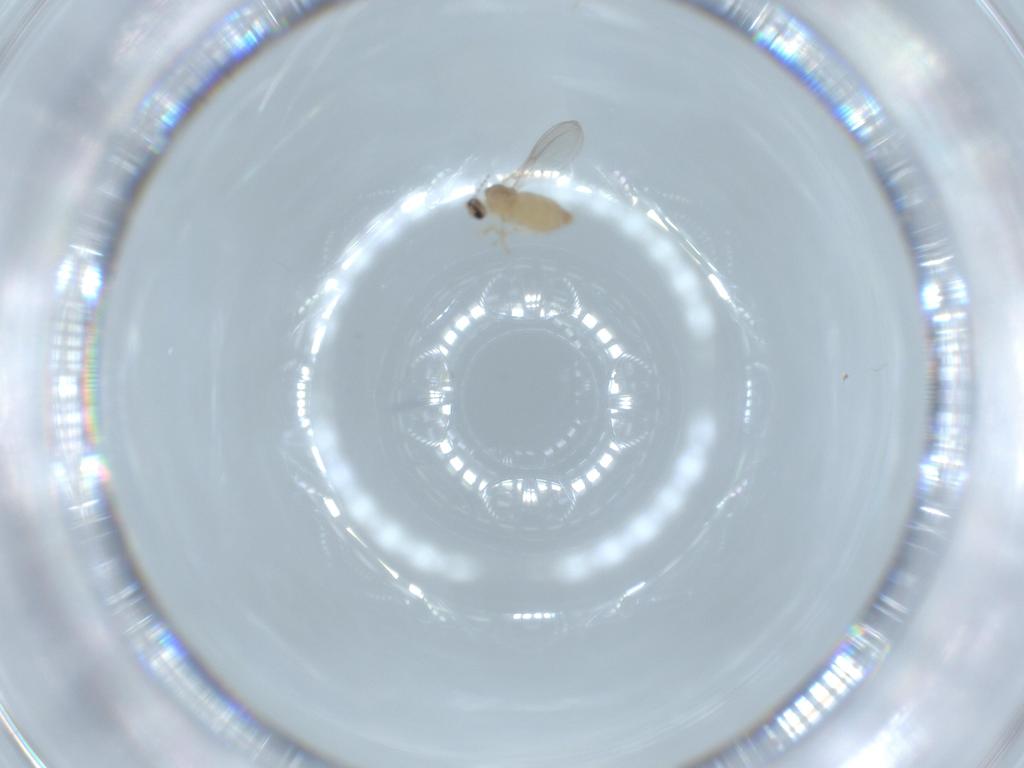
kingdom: Animalia
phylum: Arthropoda
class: Insecta
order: Diptera
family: Cecidomyiidae
